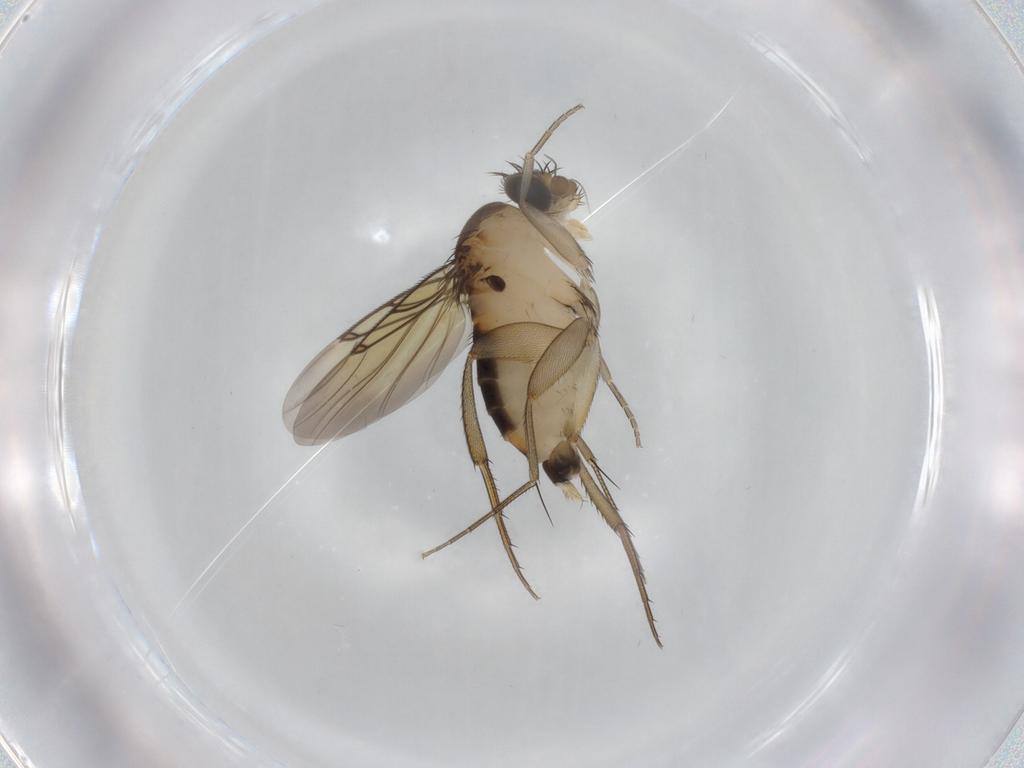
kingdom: Animalia
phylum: Arthropoda
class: Insecta
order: Diptera
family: Phoridae
